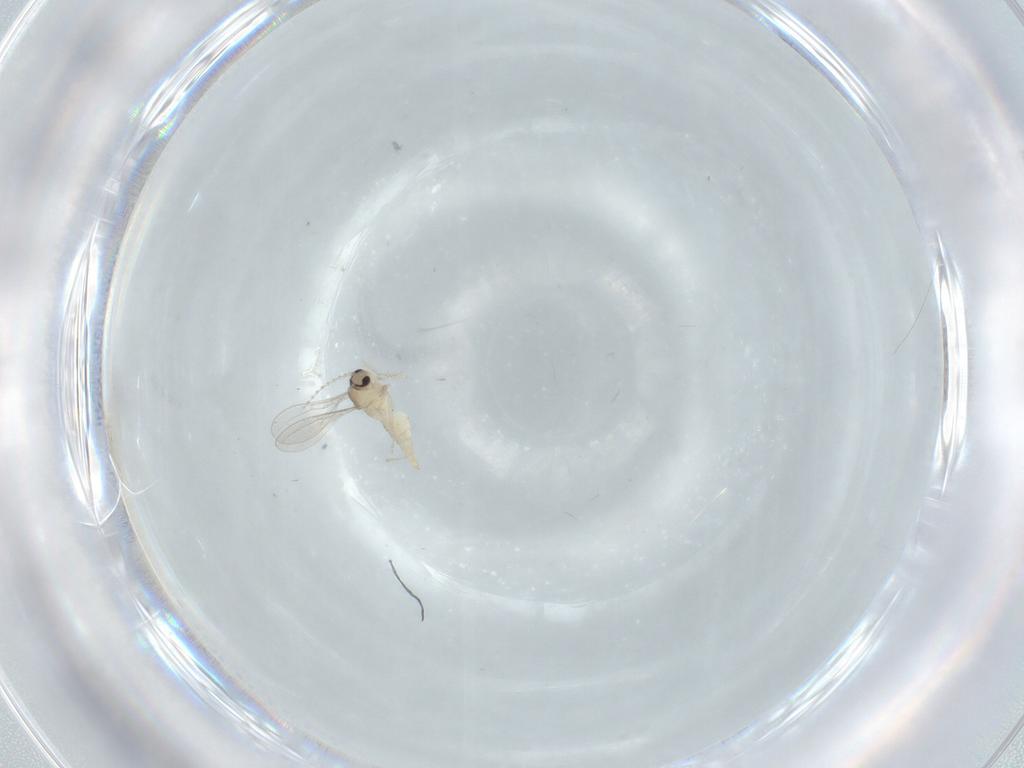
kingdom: Animalia
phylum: Arthropoda
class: Insecta
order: Diptera
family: Cecidomyiidae
